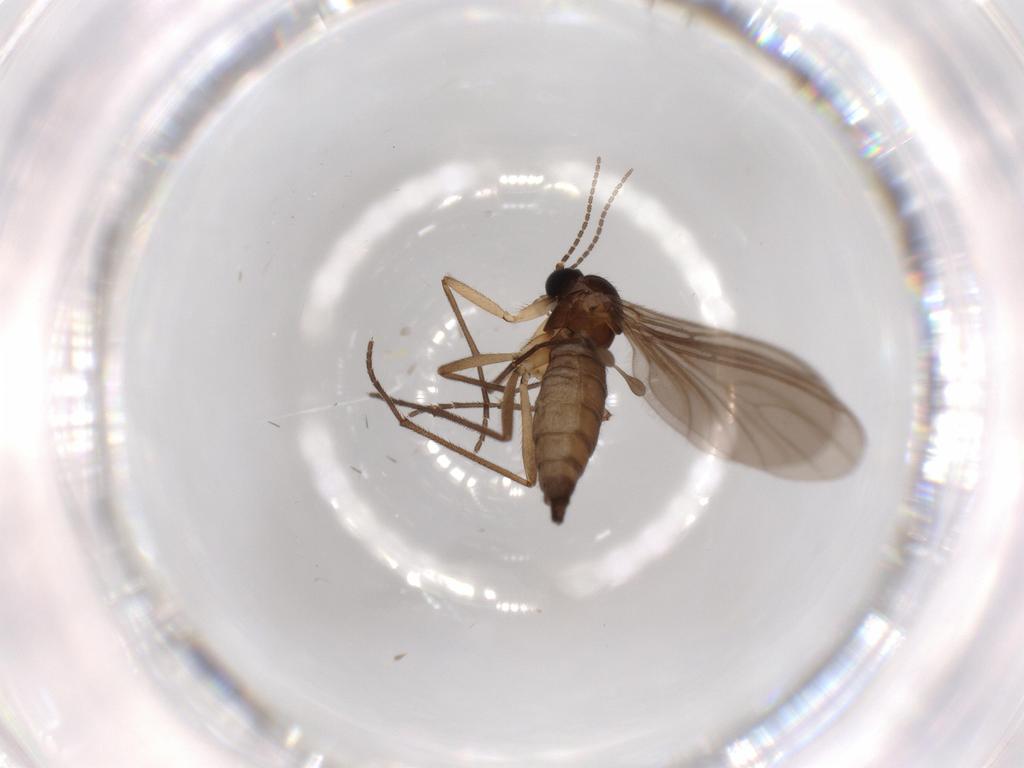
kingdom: Animalia
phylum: Arthropoda
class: Insecta
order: Diptera
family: Sciaridae
